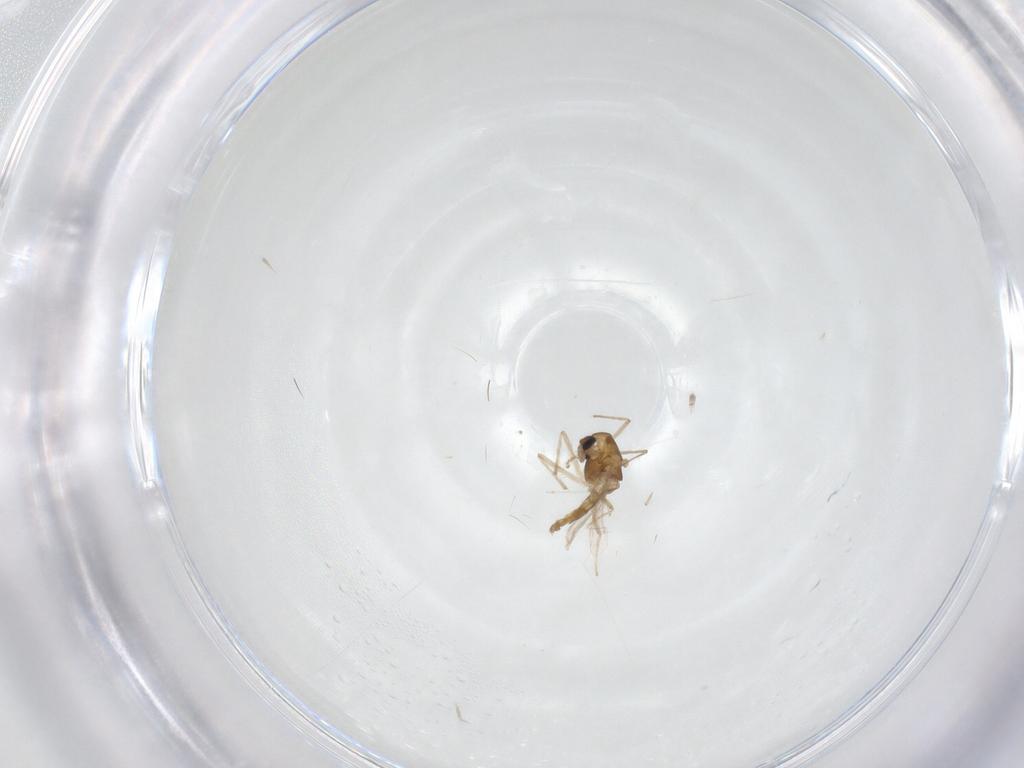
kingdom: Animalia
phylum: Arthropoda
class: Insecta
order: Diptera
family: Cecidomyiidae
